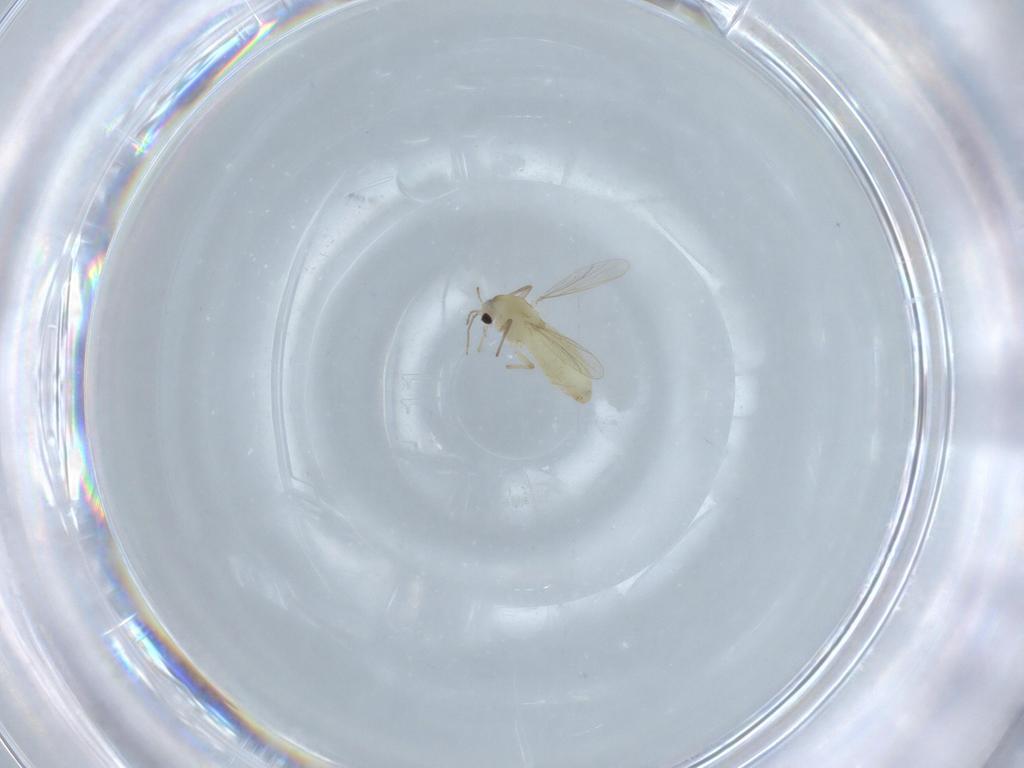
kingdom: Animalia
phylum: Arthropoda
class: Insecta
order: Diptera
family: Chironomidae
